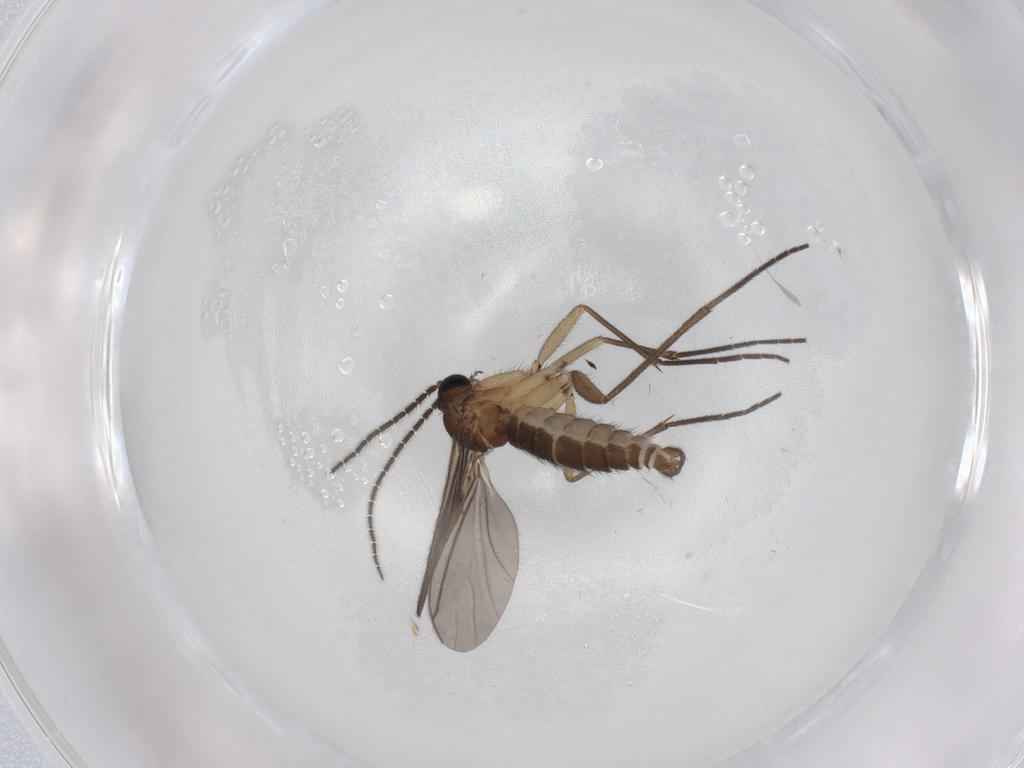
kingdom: Animalia
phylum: Arthropoda
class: Insecta
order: Diptera
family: Sciaridae
